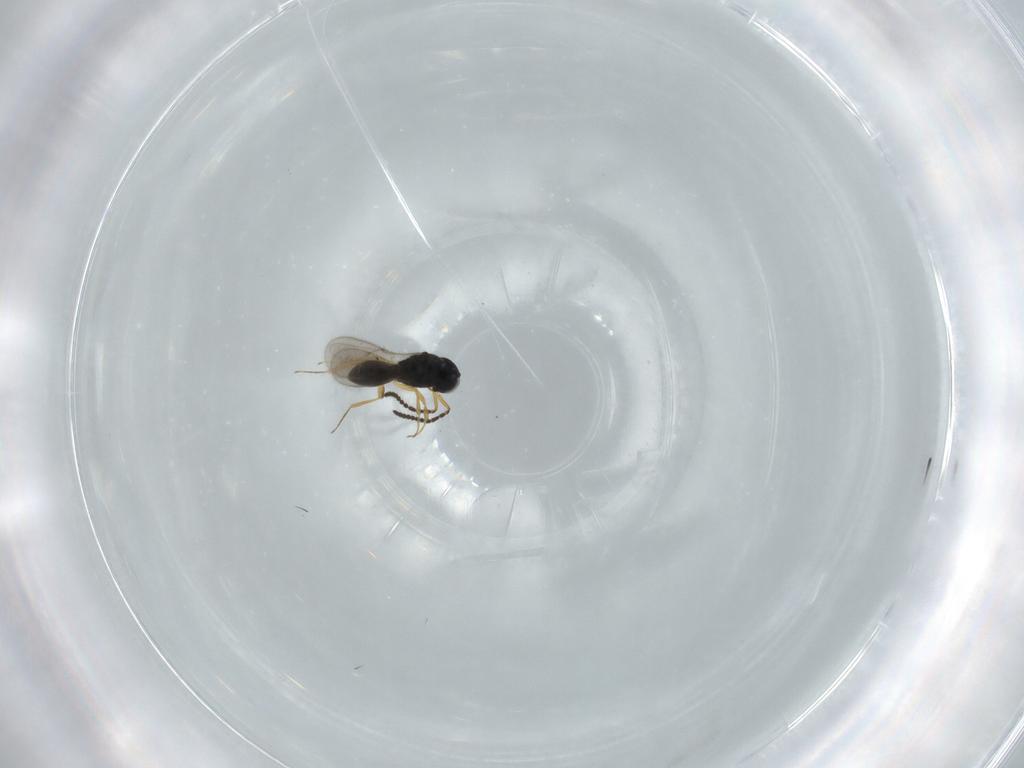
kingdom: Animalia
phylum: Arthropoda
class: Insecta
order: Hymenoptera
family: Scelionidae
